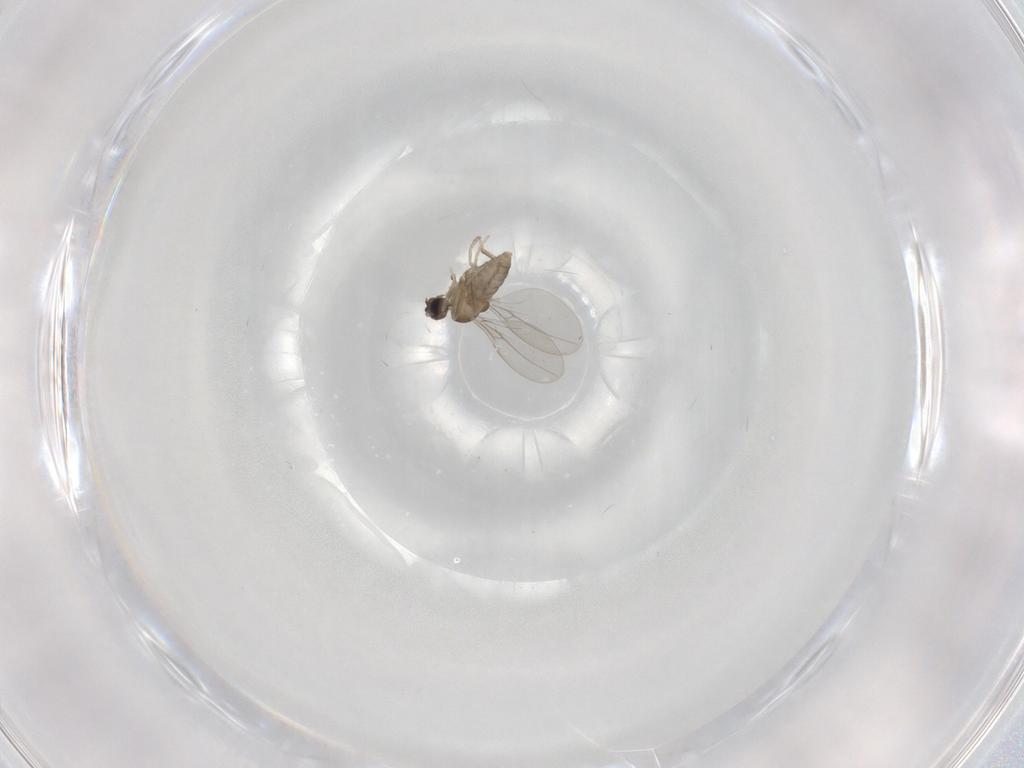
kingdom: Animalia
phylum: Arthropoda
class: Insecta
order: Diptera
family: Cecidomyiidae
